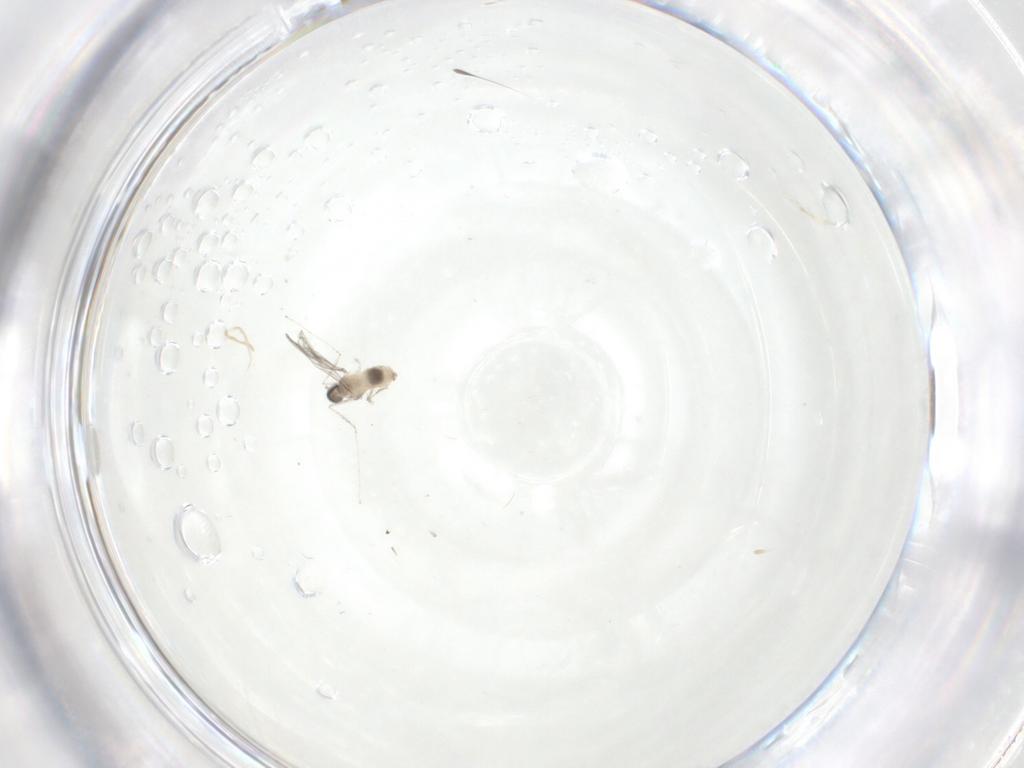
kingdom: Animalia
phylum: Arthropoda
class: Insecta
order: Diptera
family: Cecidomyiidae
